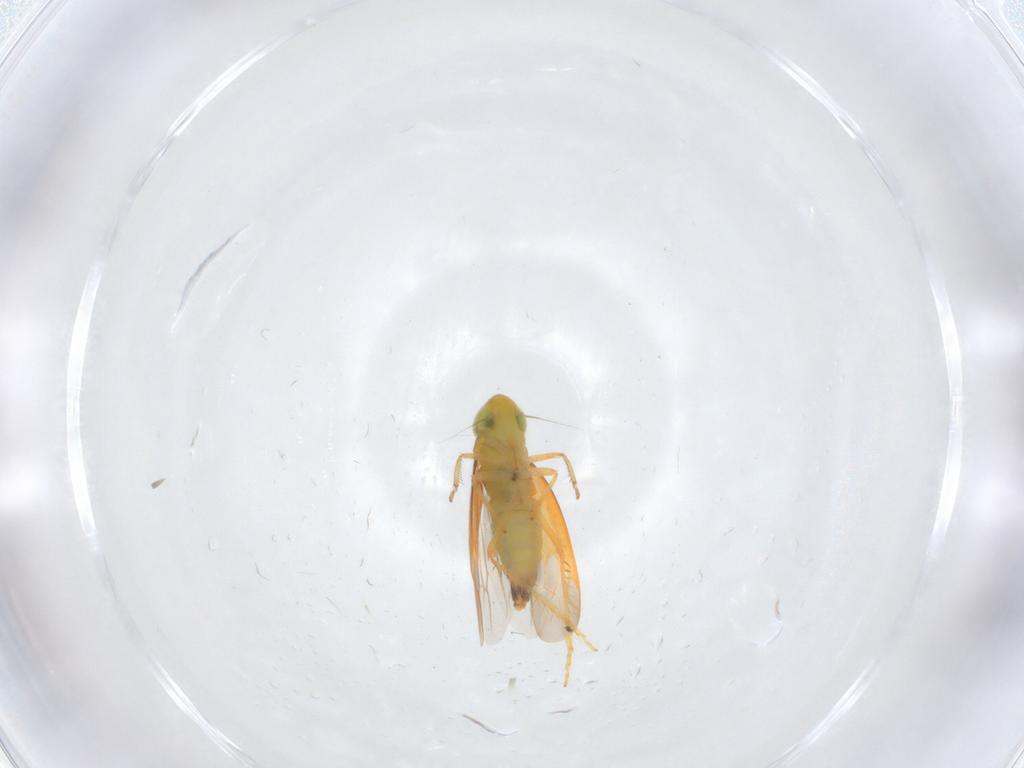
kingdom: Animalia
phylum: Arthropoda
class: Insecta
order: Hemiptera
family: Cicadellidae
